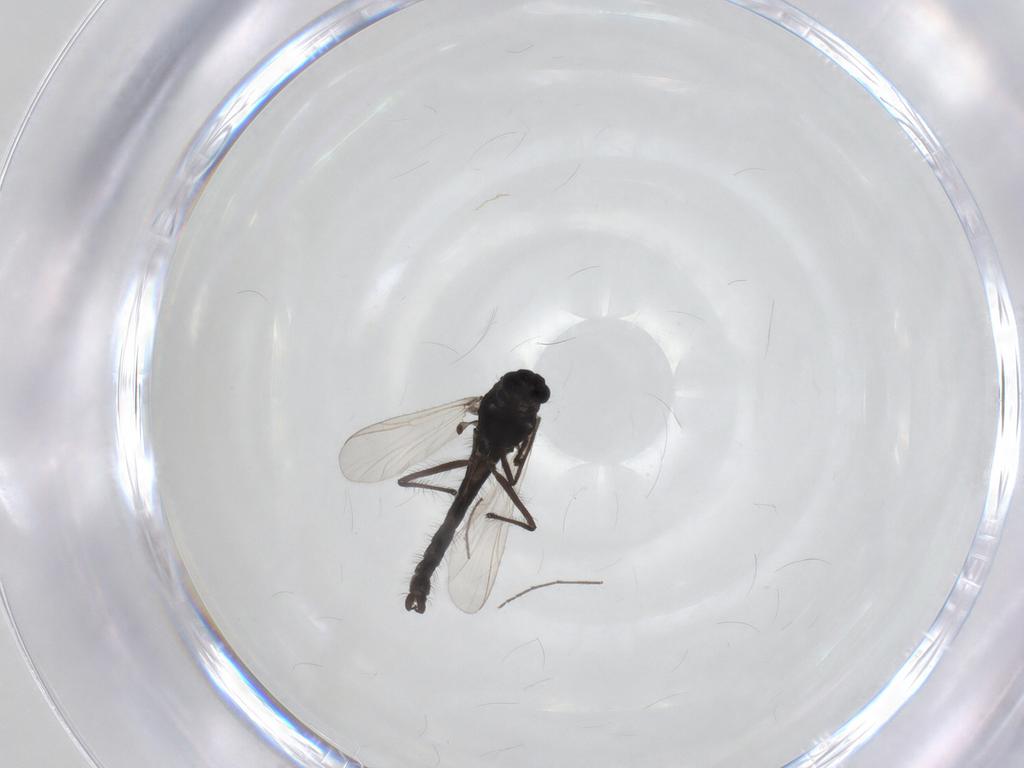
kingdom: Animalia
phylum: Arthropoda
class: Insecta
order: Diptera
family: Chironomidae
